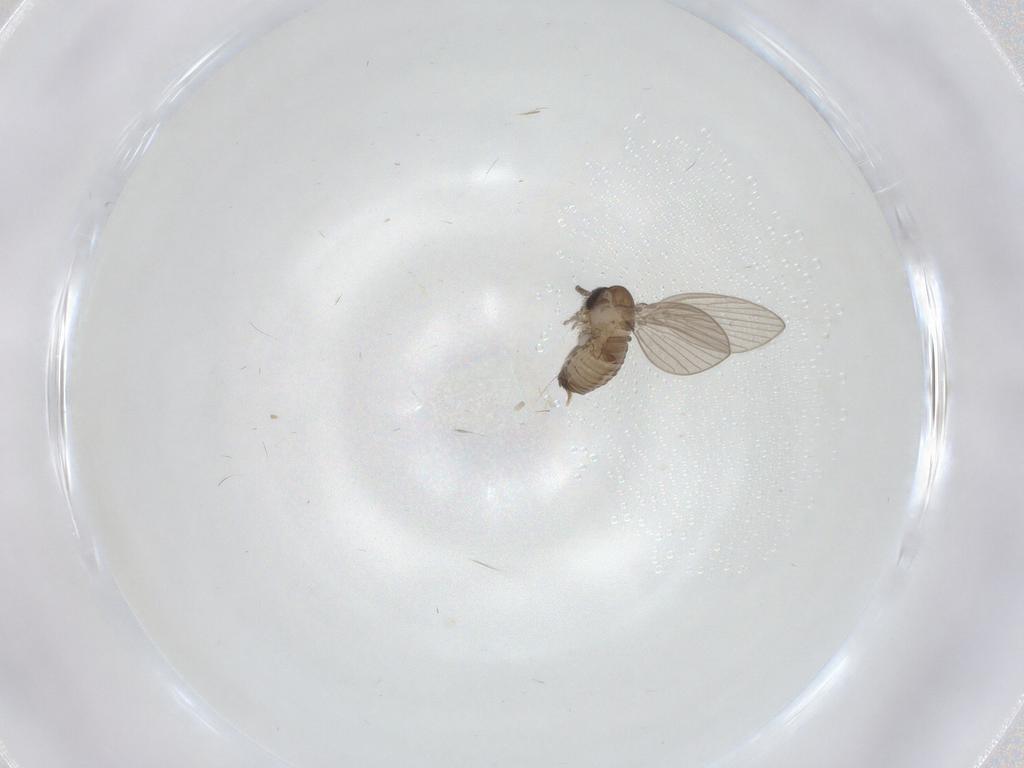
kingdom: Animalia
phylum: Arthropoda
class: Insecta
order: Diptera
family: Psychodidae
